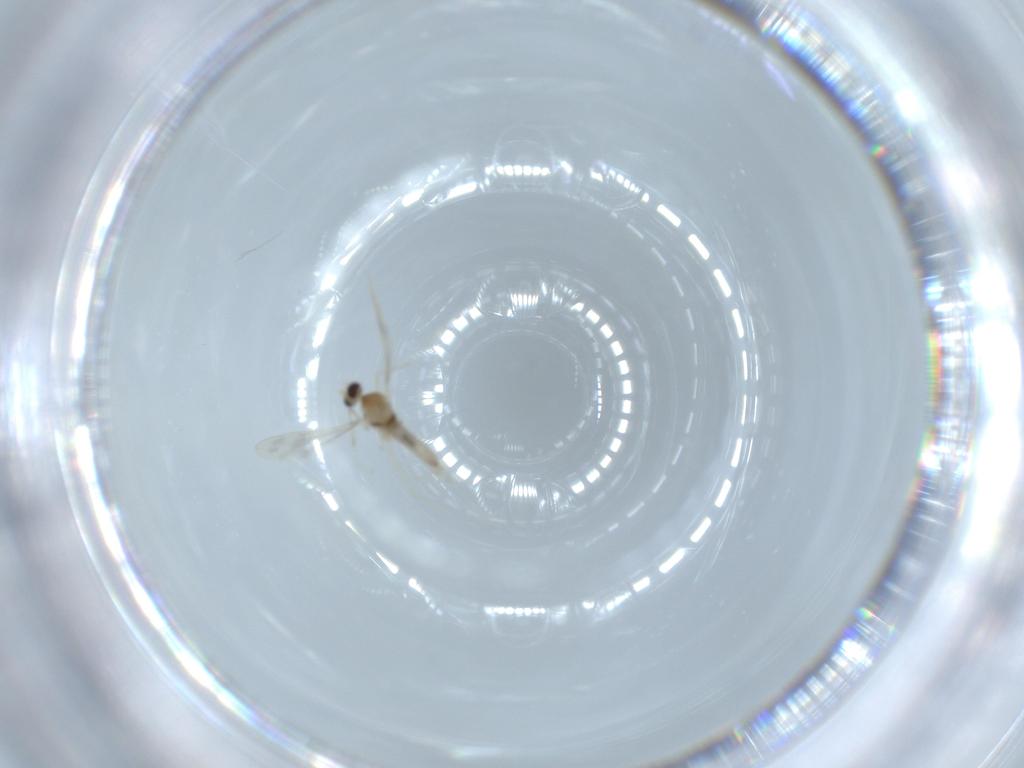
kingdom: Animalia
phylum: Arthropoda
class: Insecta
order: Diptera
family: Cecidomyiidae
